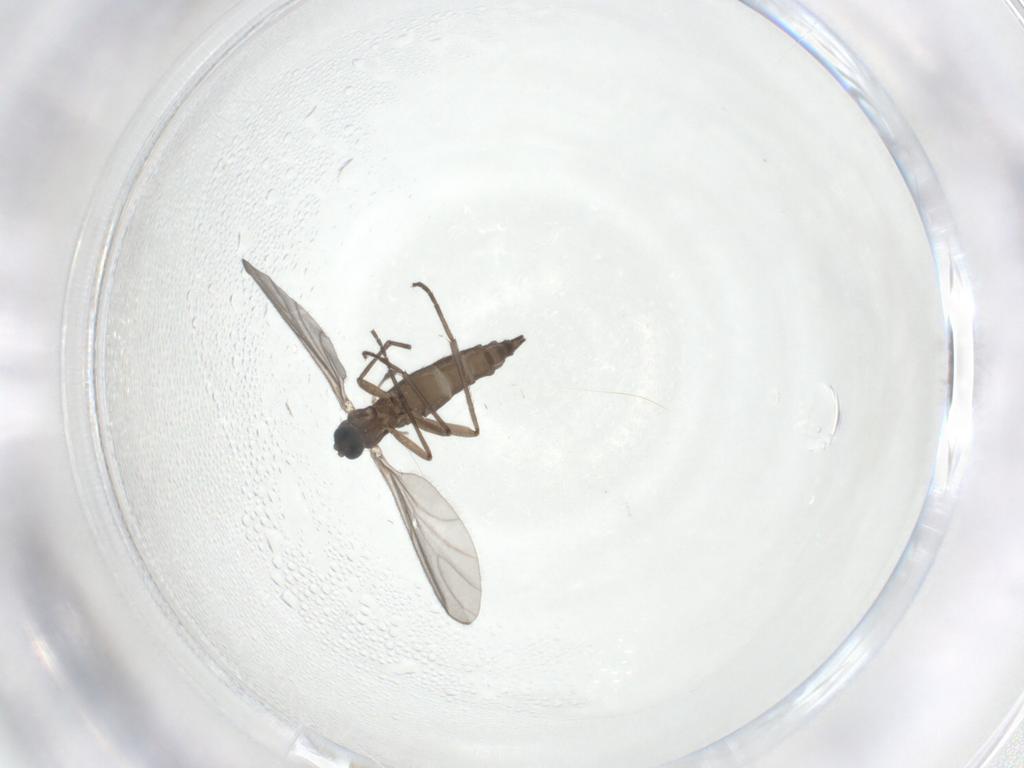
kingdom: Animalia
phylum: Arthropoda
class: Insecta
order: Diptera
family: Sciaridae
